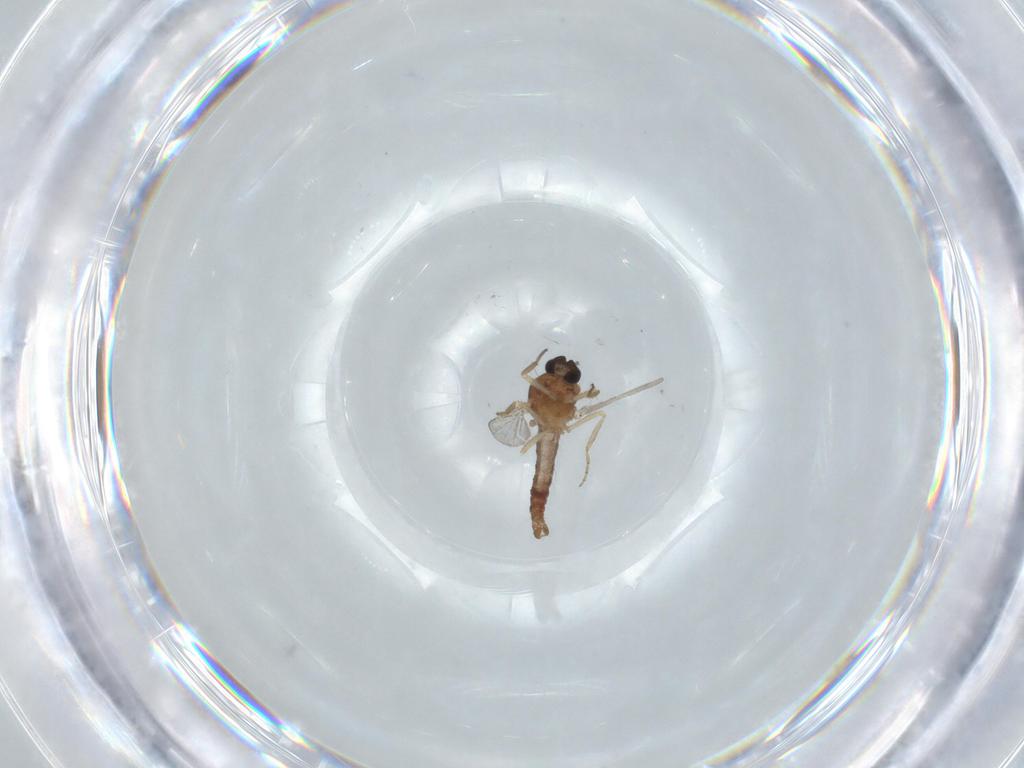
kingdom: Animalia
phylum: Arthropoda
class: Insecta
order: Diptera
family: Ceratopogonidae
